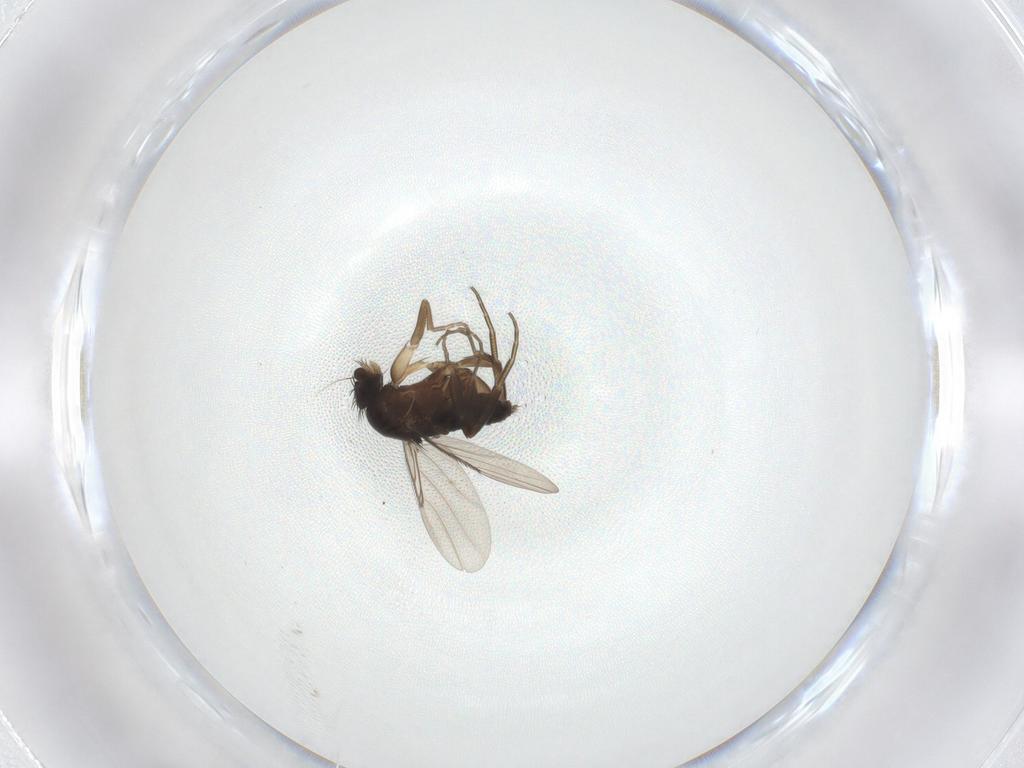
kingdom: Animalia
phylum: Arthropoda
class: Insecta
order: Diptera
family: Phoridae
